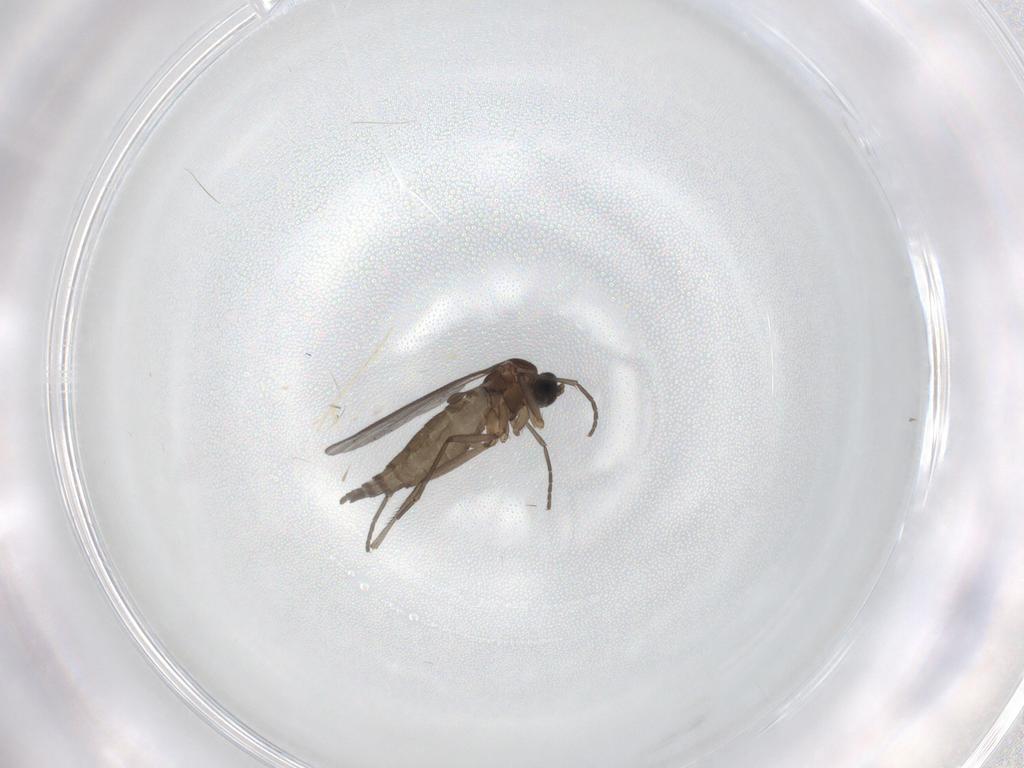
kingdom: Animalia
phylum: Arthropoda
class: Insecta
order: Diptera
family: Sciaridae
